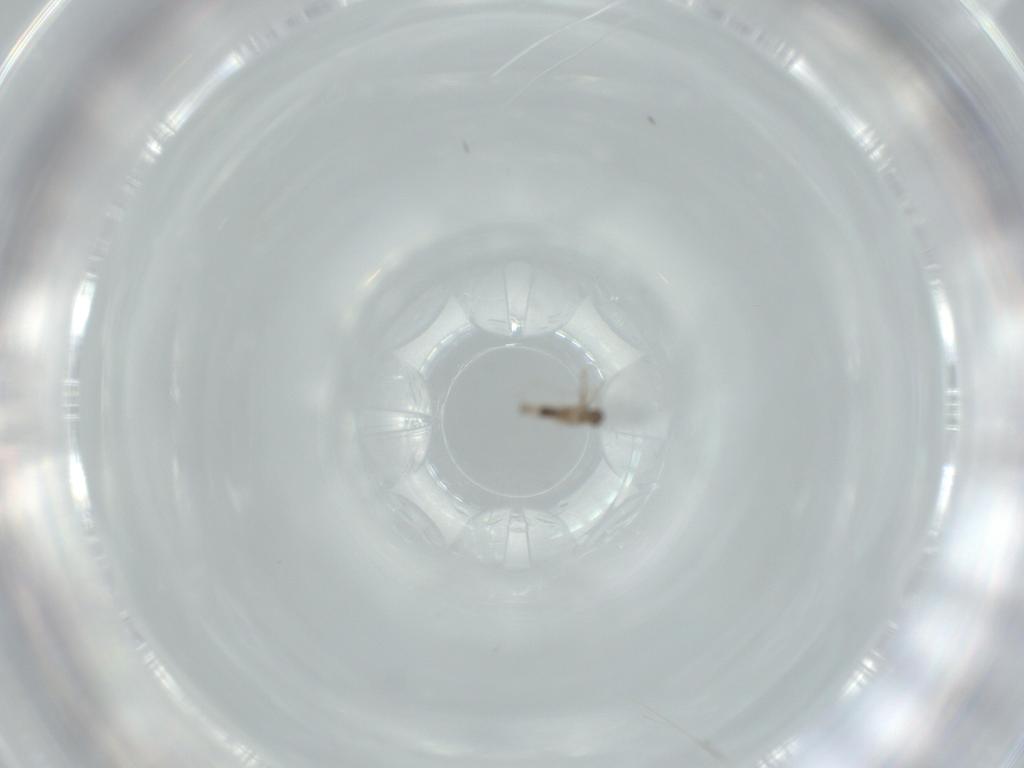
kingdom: Animalia
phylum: Arthropoda
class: Insecta
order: Diptera
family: Cecidomyiidae
